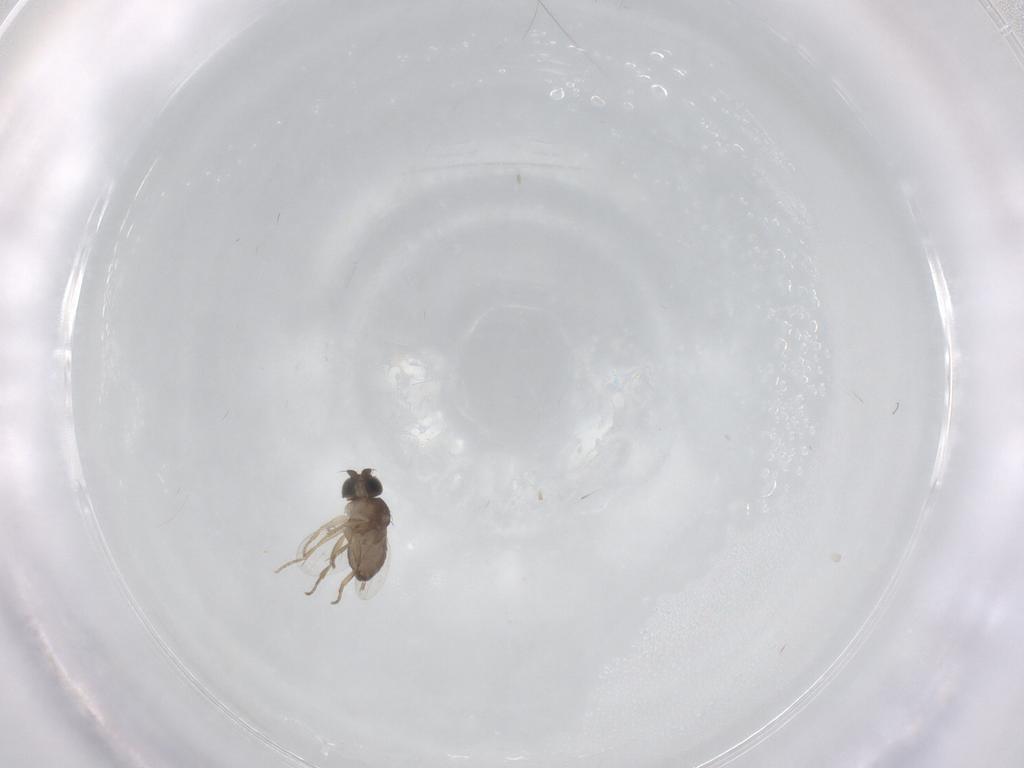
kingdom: Animalia
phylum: Arthropoda
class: Insecta
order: Diptera
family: Phoridae
